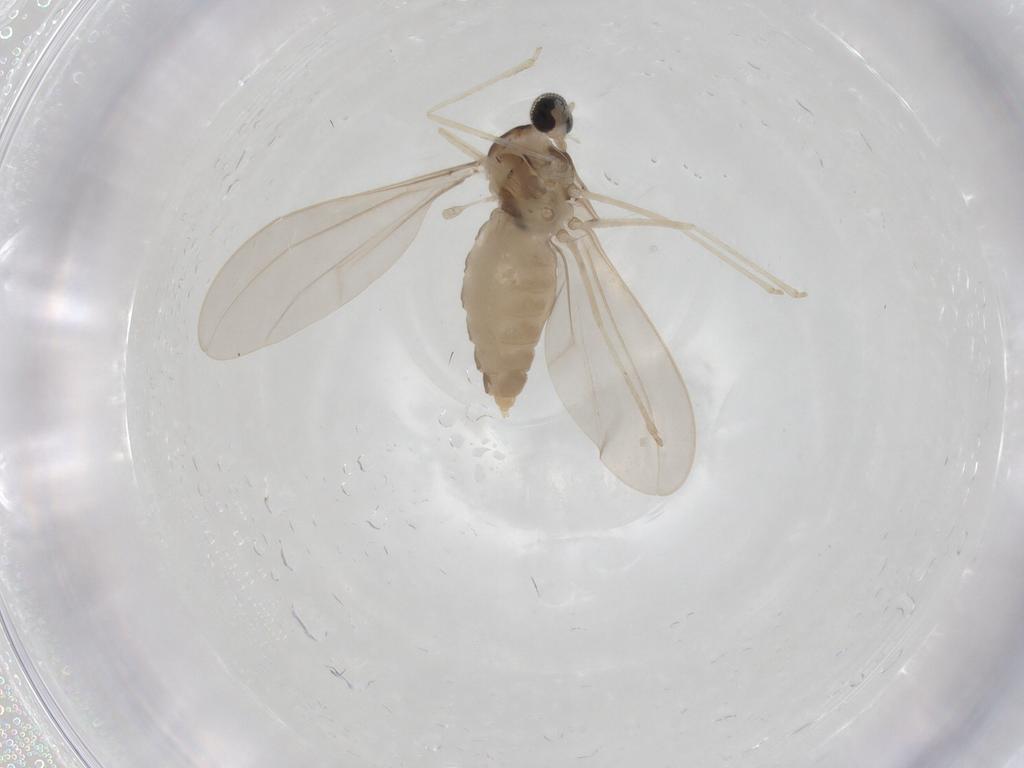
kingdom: Animalia
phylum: Arthropoda
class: Insecta
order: Diptera
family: Cecidomyiidae
